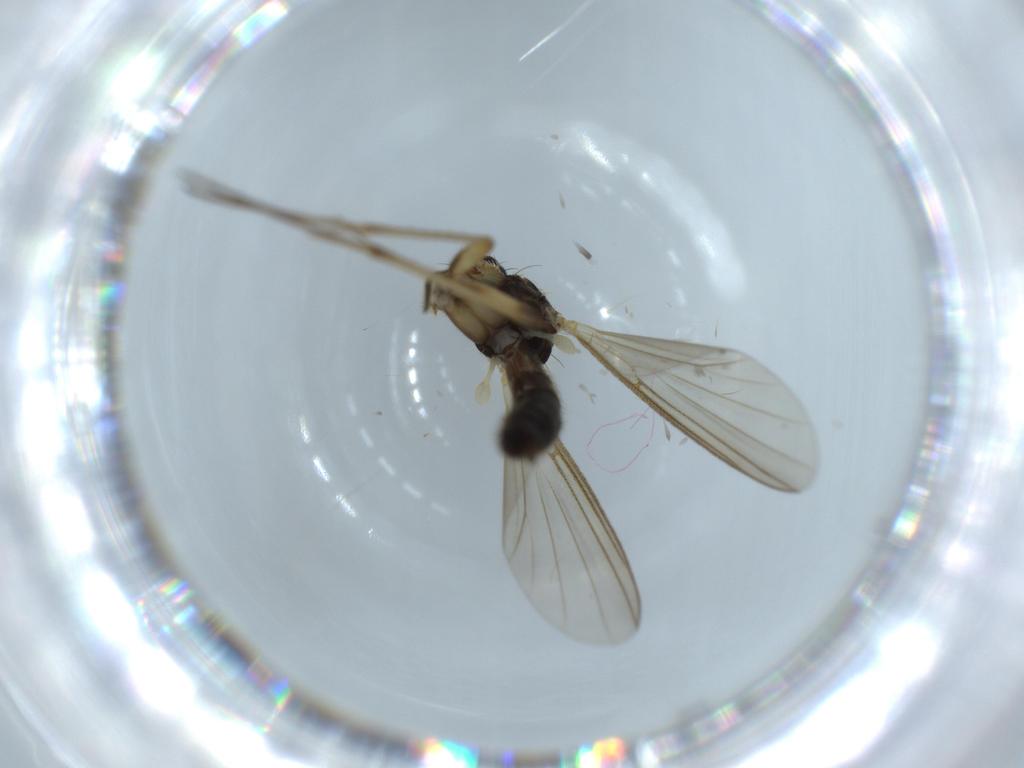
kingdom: Animalia
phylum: Arthropoda
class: Insecta
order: Diptera
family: Mycetophilidae
